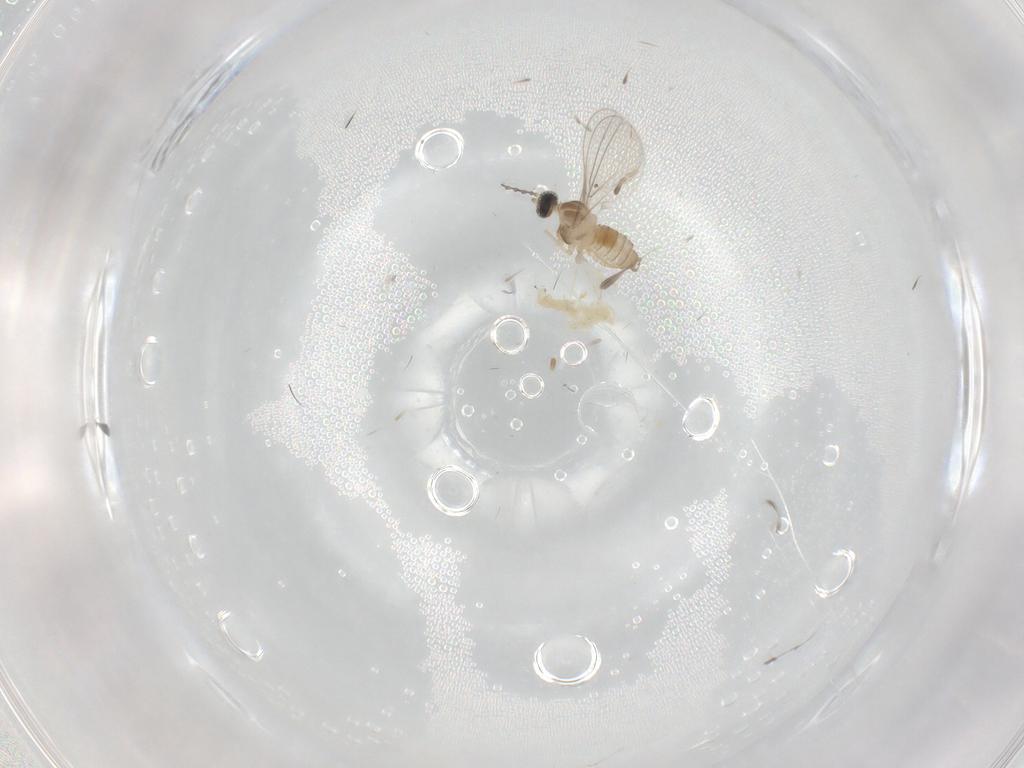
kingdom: Animalia
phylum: Arthropoda
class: Insecta
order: Diptera
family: Cecidomyiidae
